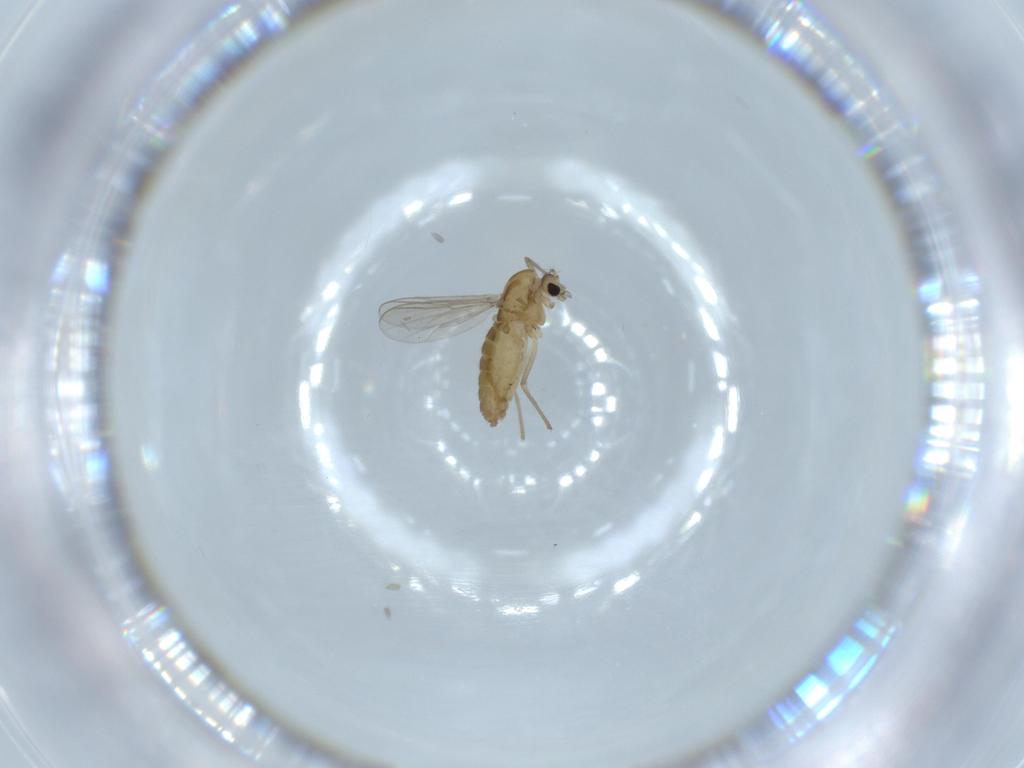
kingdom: Animalia
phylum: Arthropoda
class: Insecta
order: Diptera
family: Chironomidae
